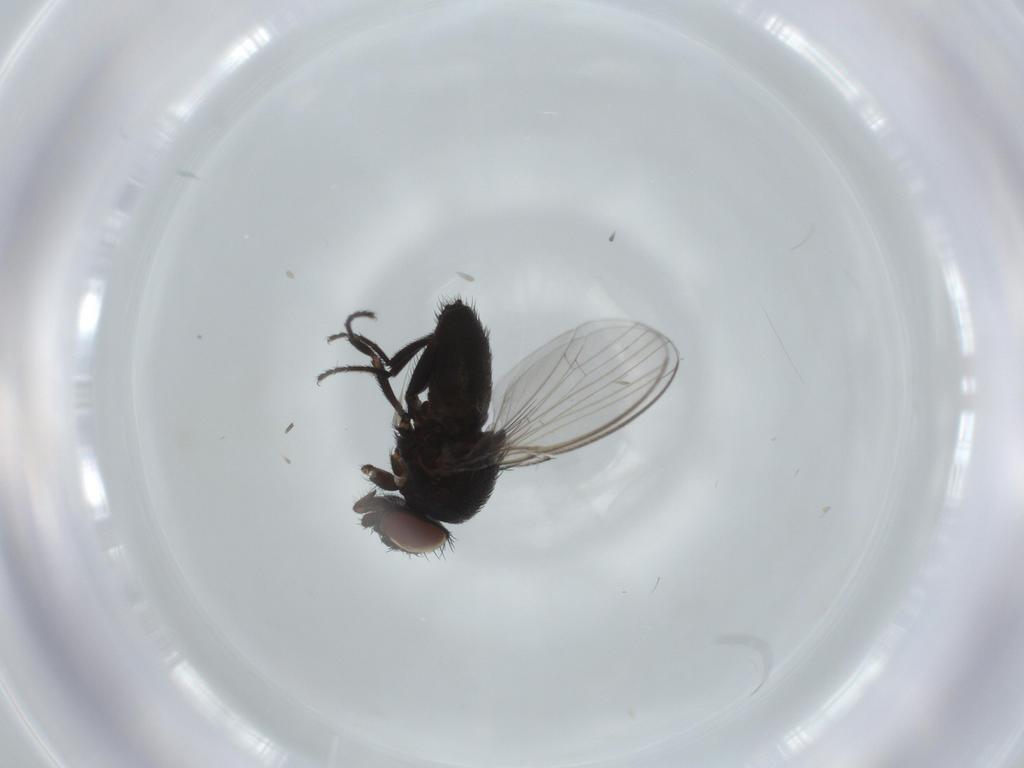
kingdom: Animalia
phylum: Arthropoda
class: Insecta
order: Diptera
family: Milichiidae
